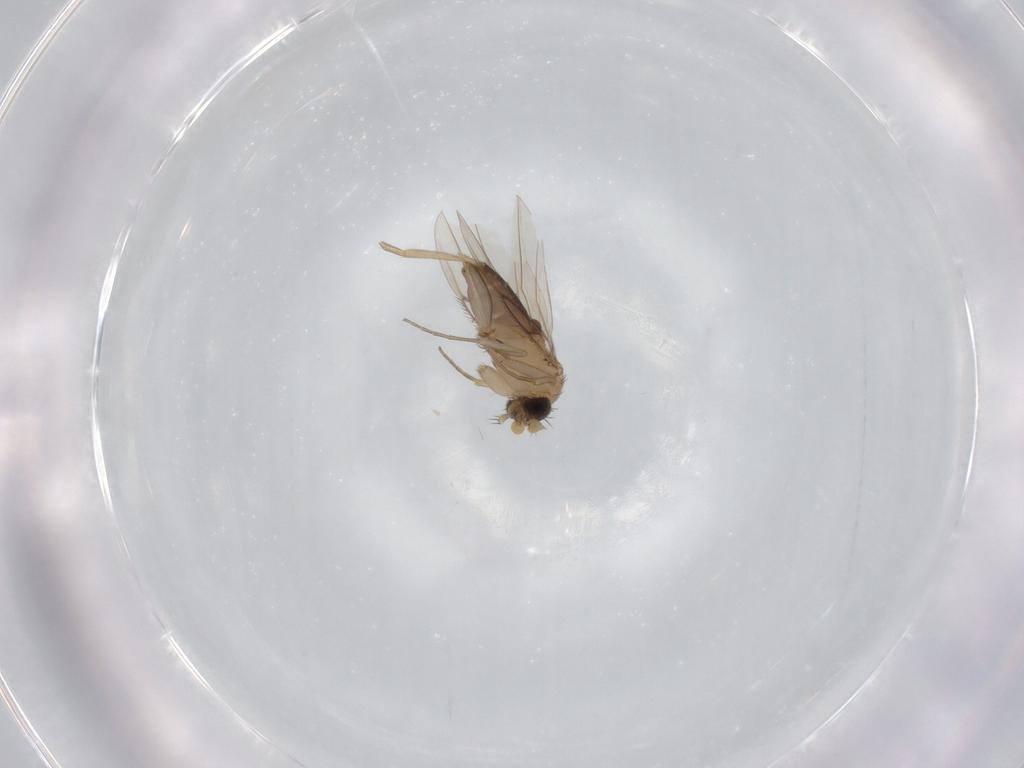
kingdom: Animalia
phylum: Arthropoda
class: Insecta
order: Diptera
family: Phoridae
